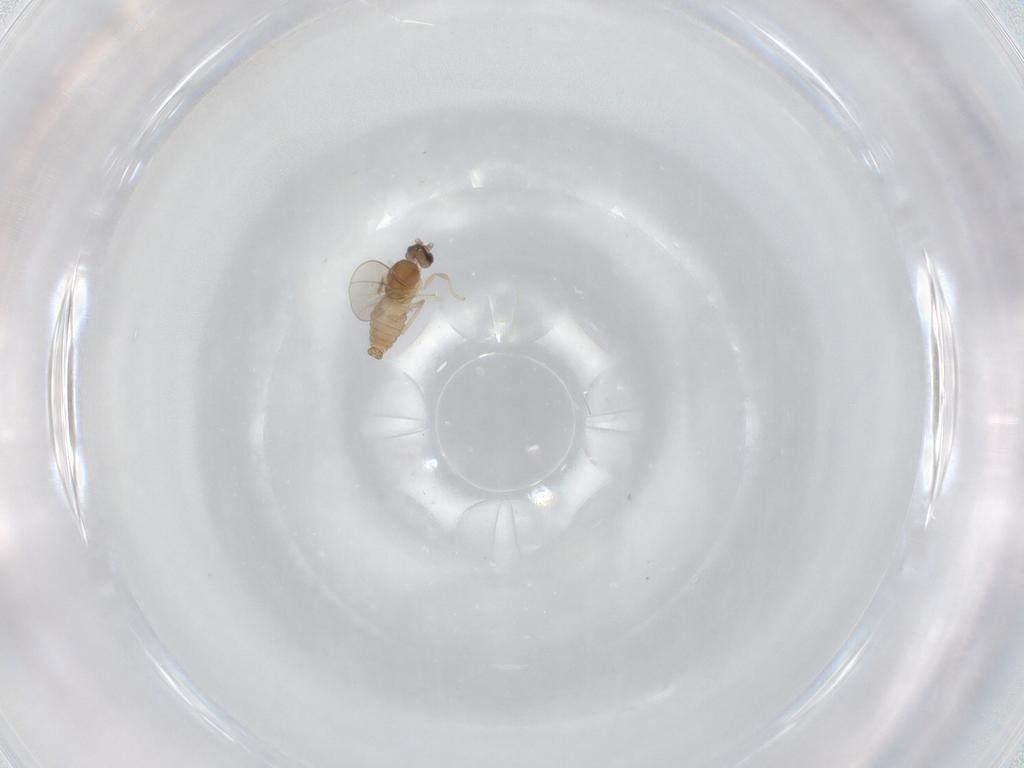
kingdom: Animalia
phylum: Arthropoda
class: Insecta
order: Diptera
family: Cecidomyiidae
